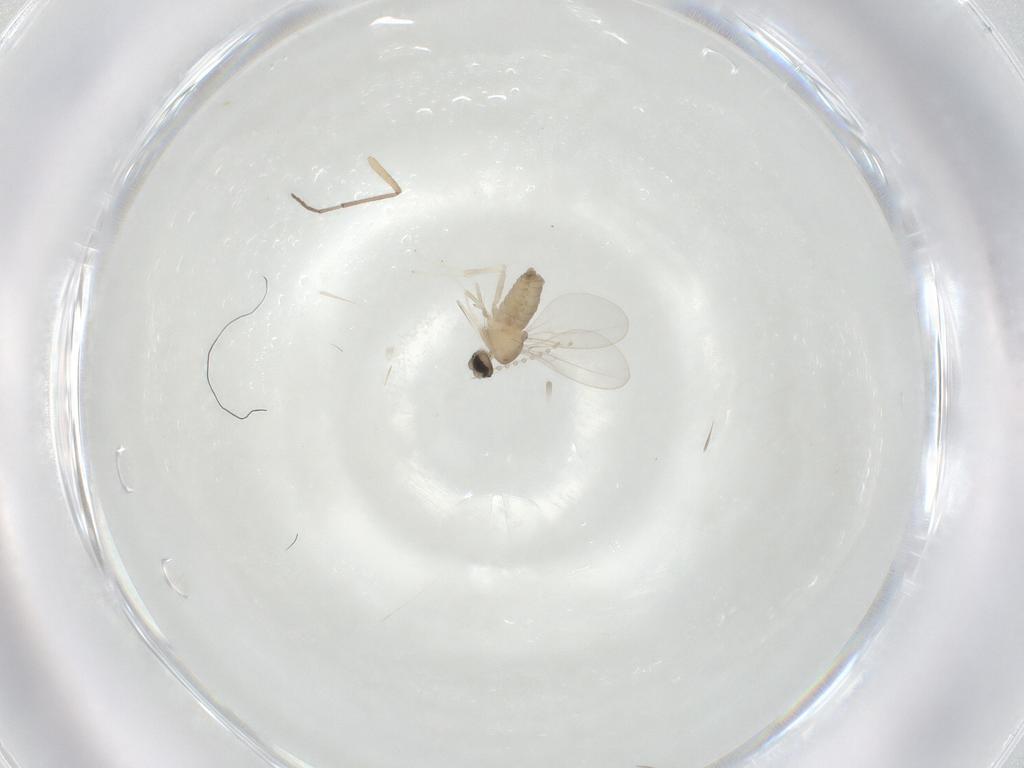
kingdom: Animalia
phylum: Arthropoda
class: Insecta
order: Diptera
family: Cecidomyiidae
